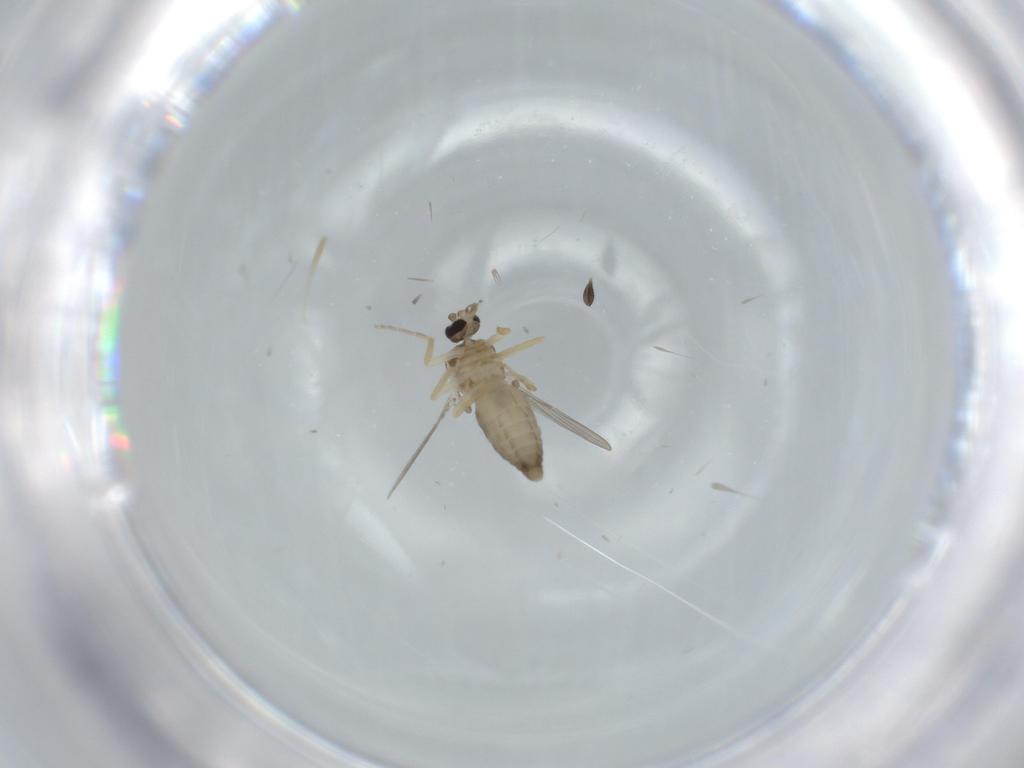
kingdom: Animalia
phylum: Arthropoda
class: Insecta
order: Diptera
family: Ceratopogonidae
